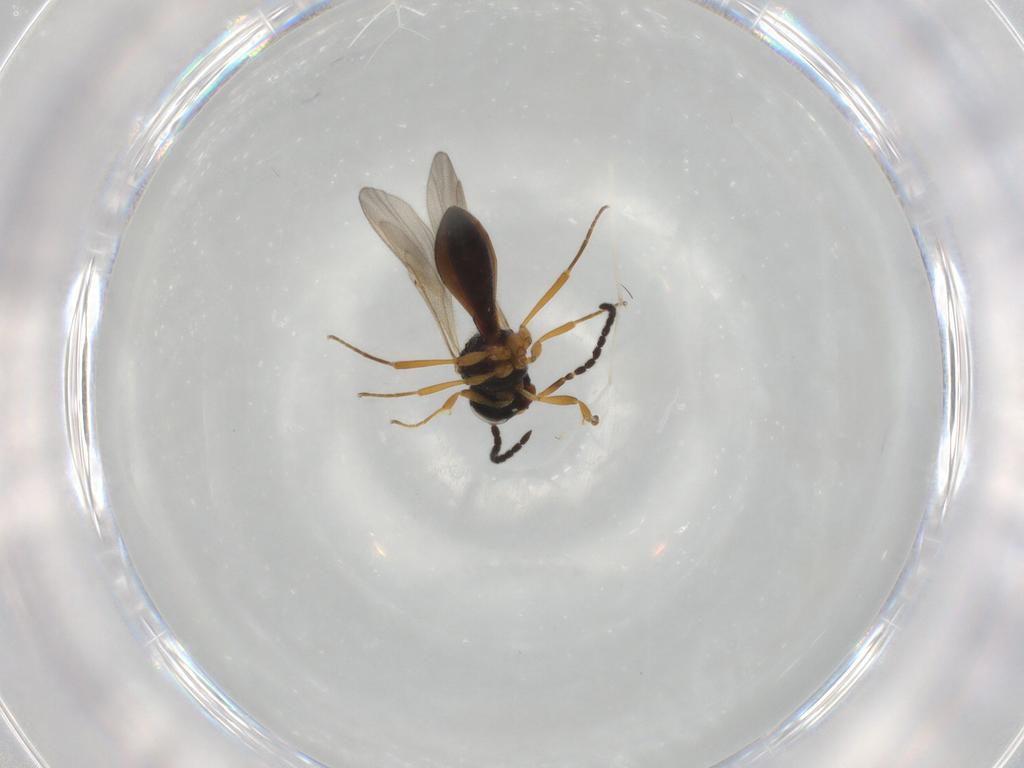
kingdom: Animalia
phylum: Arthropoda
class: Insecta
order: Hymenoptera
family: Scelionidae
